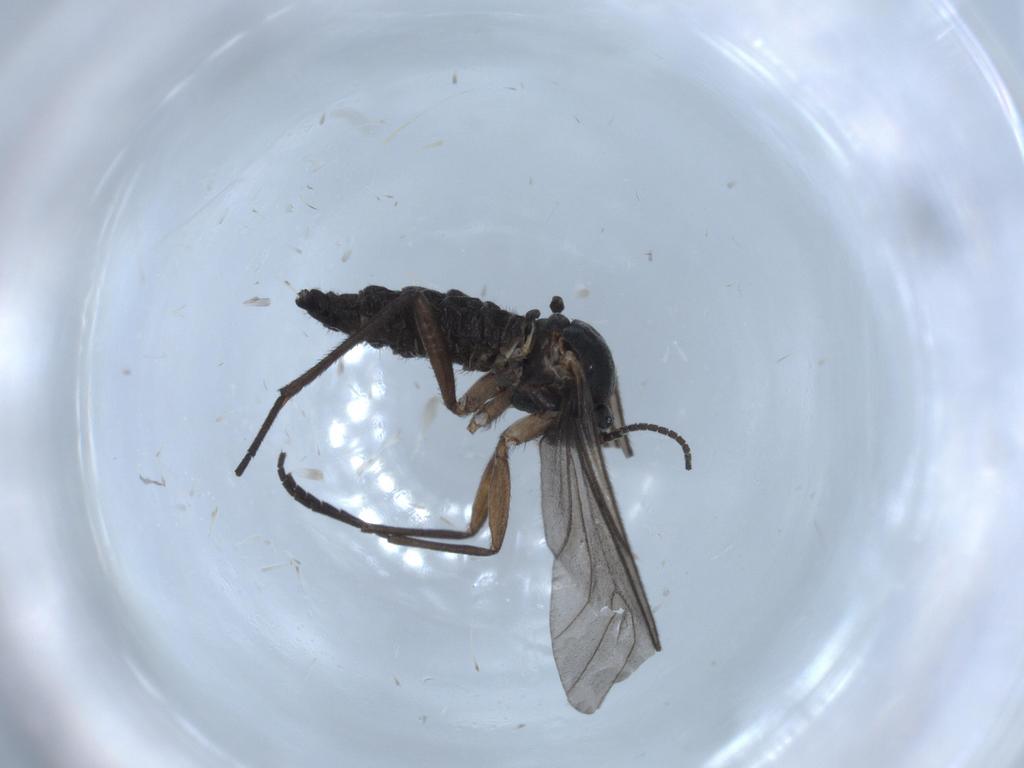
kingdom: Animalia
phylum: Arthropoda
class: Insecta
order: Diptera
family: Sciaridae
